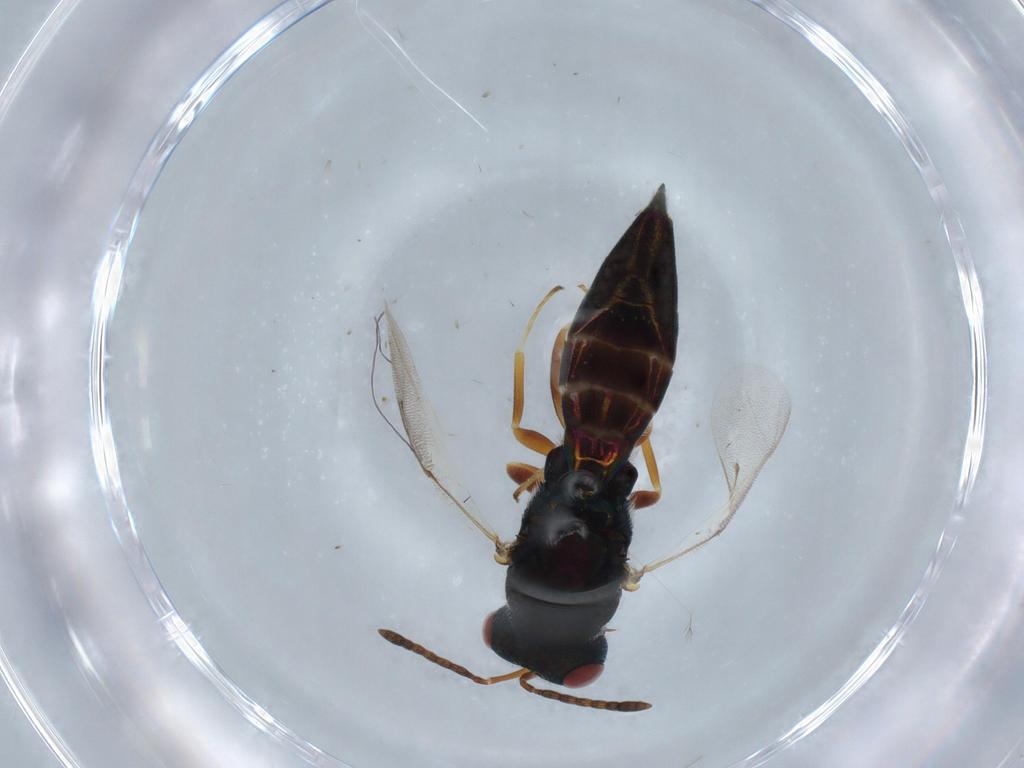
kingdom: Animalia
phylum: Arthropoda
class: Insecta
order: Hymenoptera
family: Pteromalidae
